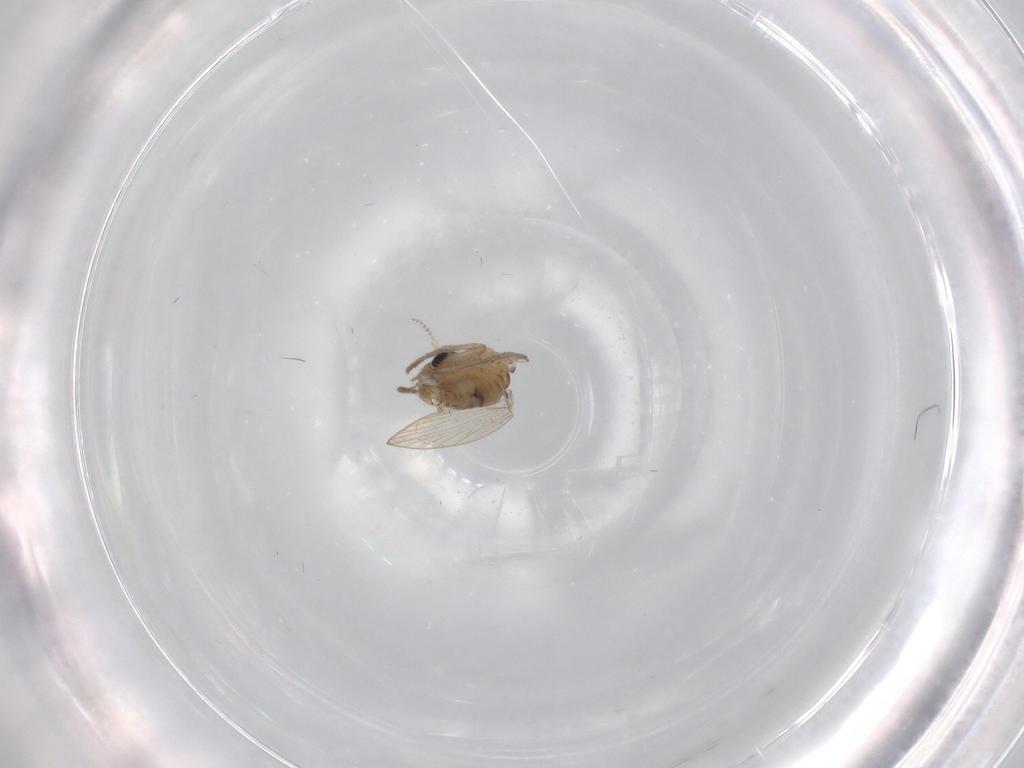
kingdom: Animalia
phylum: Arthropoda
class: Insecta
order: Diptera
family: Psychodidae
